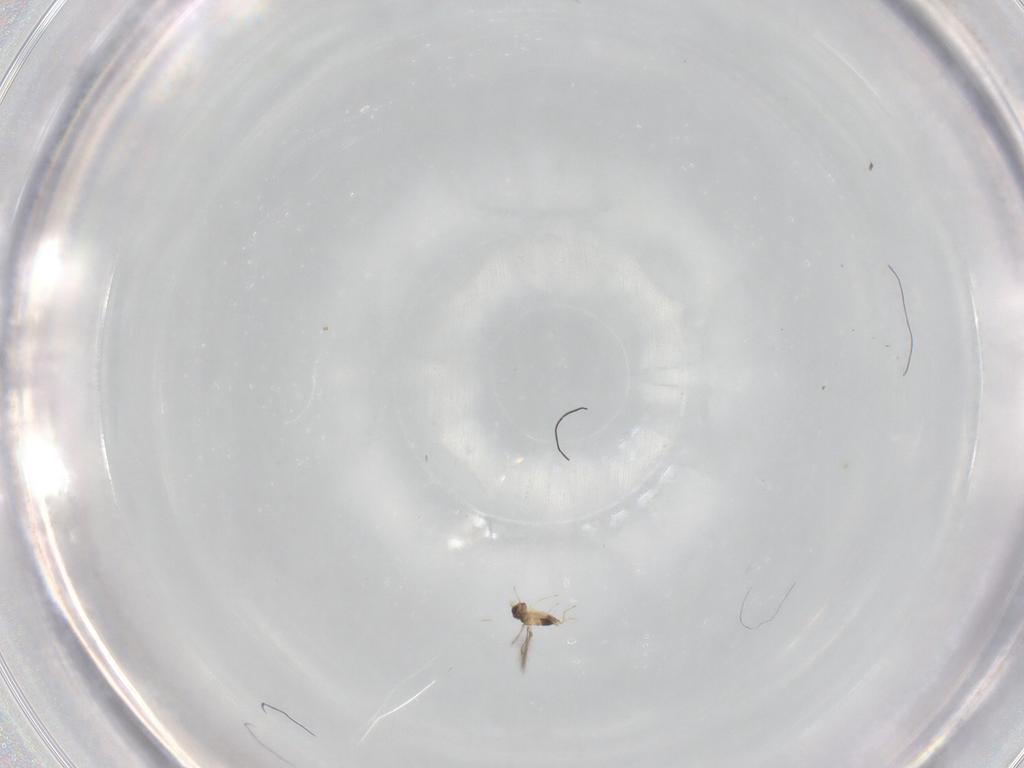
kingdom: Animalia
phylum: Arthropoda
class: Insecta
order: Hymenoptera
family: Mymaridae
